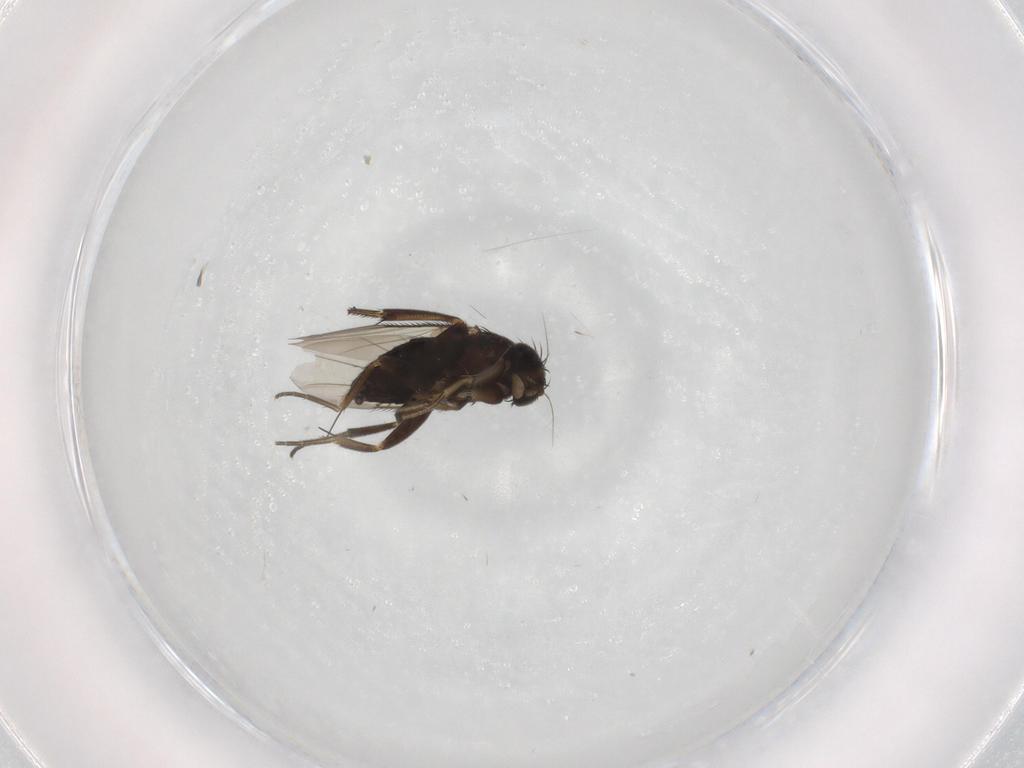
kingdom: Animalia
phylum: Arthropoda
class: Insecta
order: Diptera
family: Phoridae
